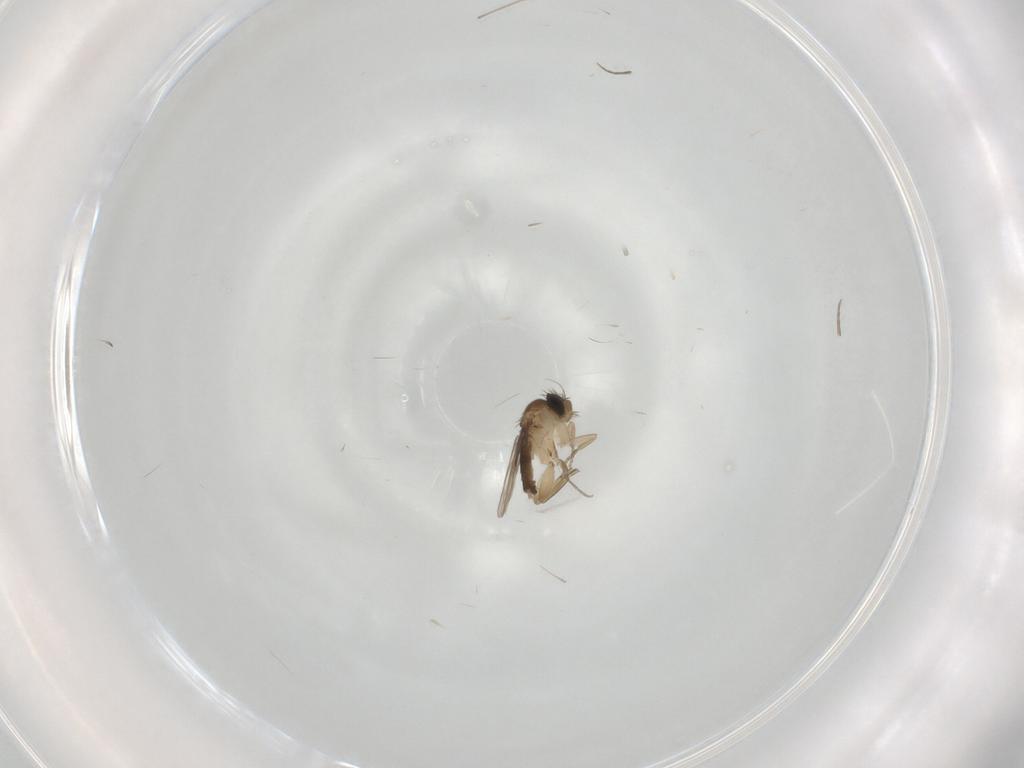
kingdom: Animalia
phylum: Arthropoda
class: Insecta
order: Diptera
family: Phoridae
